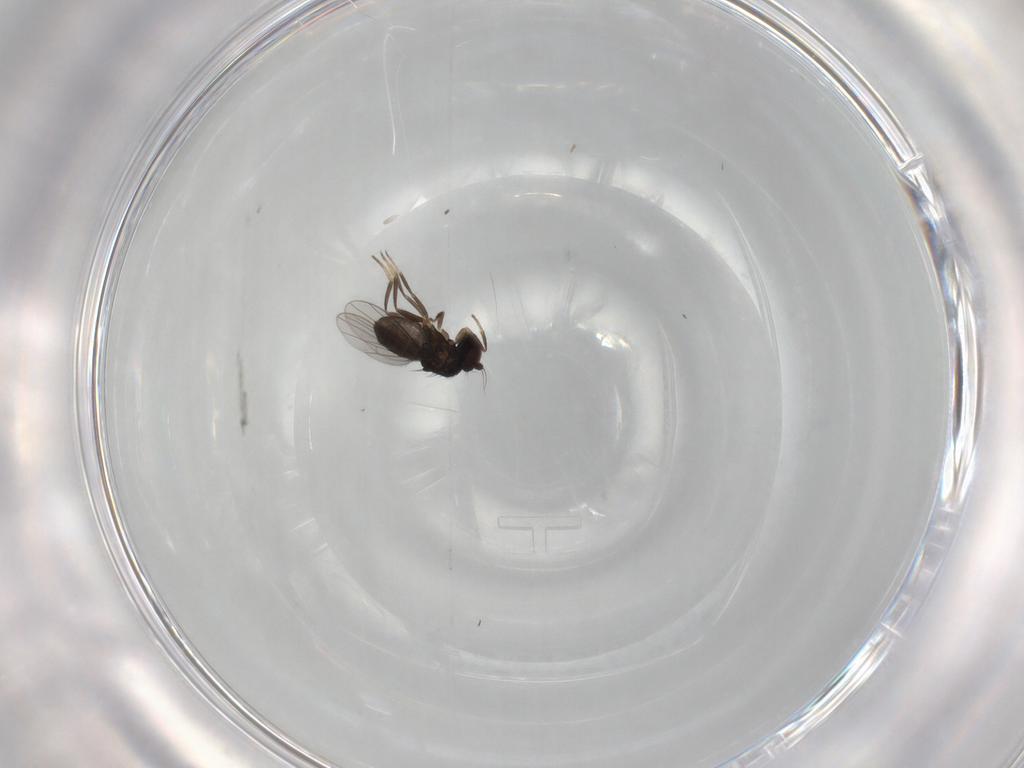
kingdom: Animalia
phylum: Arthropoda
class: Insecta
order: Diptera
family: Dolichopodidae
